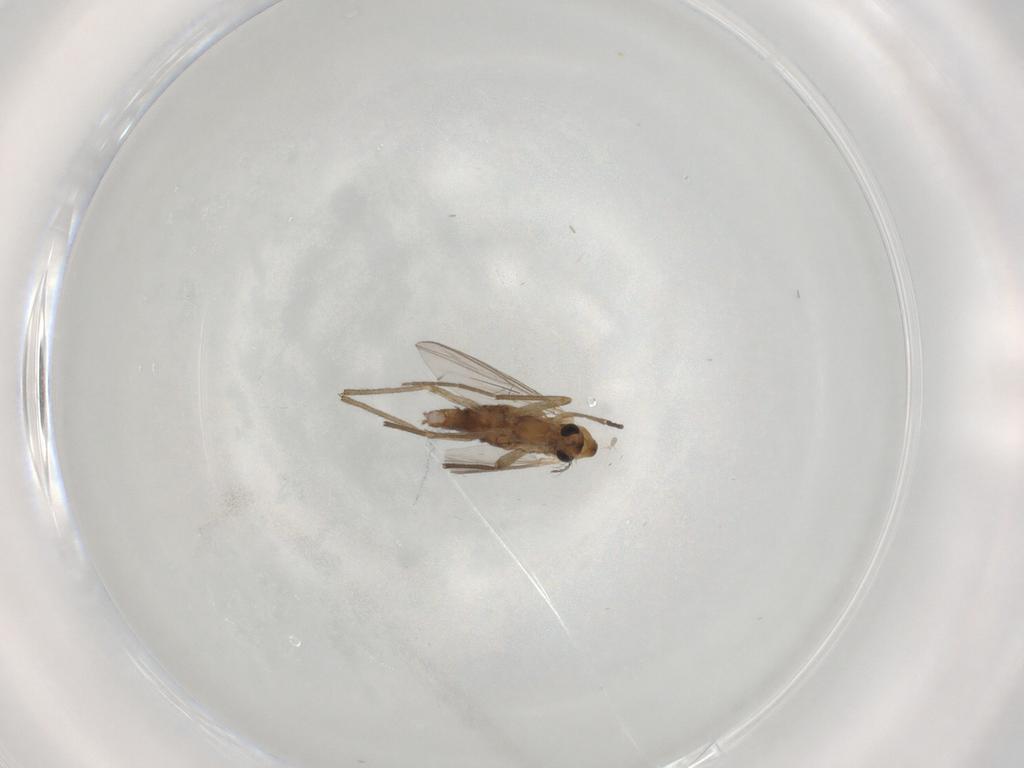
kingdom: Animalia
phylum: Arthropoda
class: Insecta
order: Diptera
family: Chironomidae
